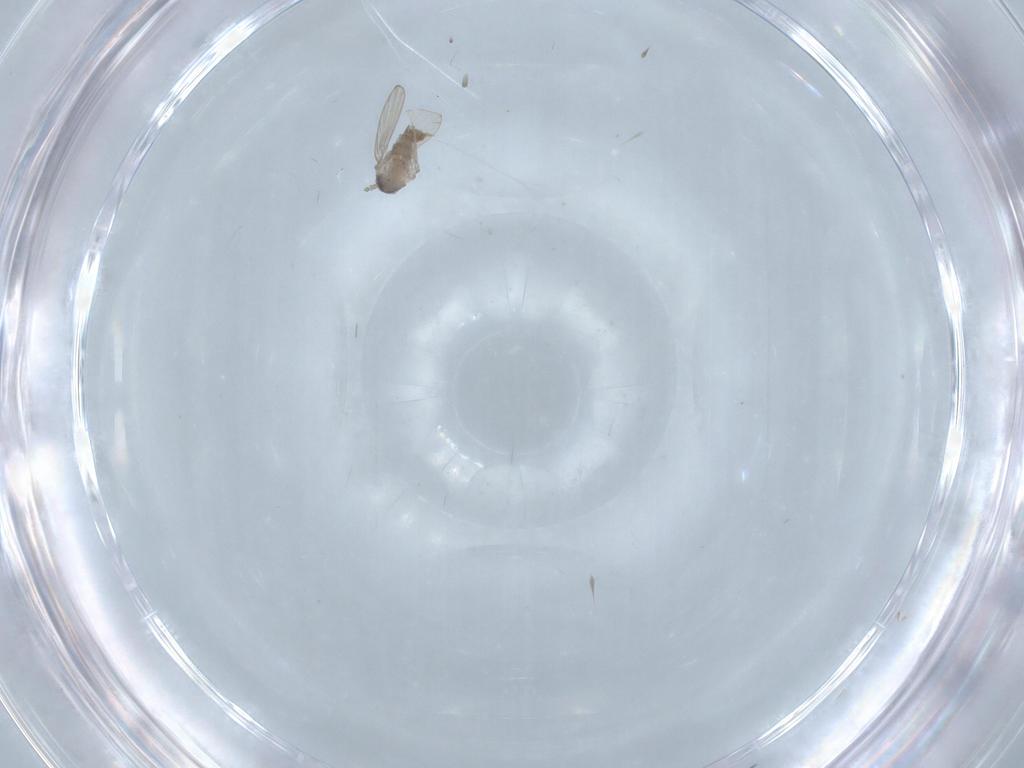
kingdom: Animalia
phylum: Arthropoda
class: Insecta
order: Diptera
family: Psychodidae
